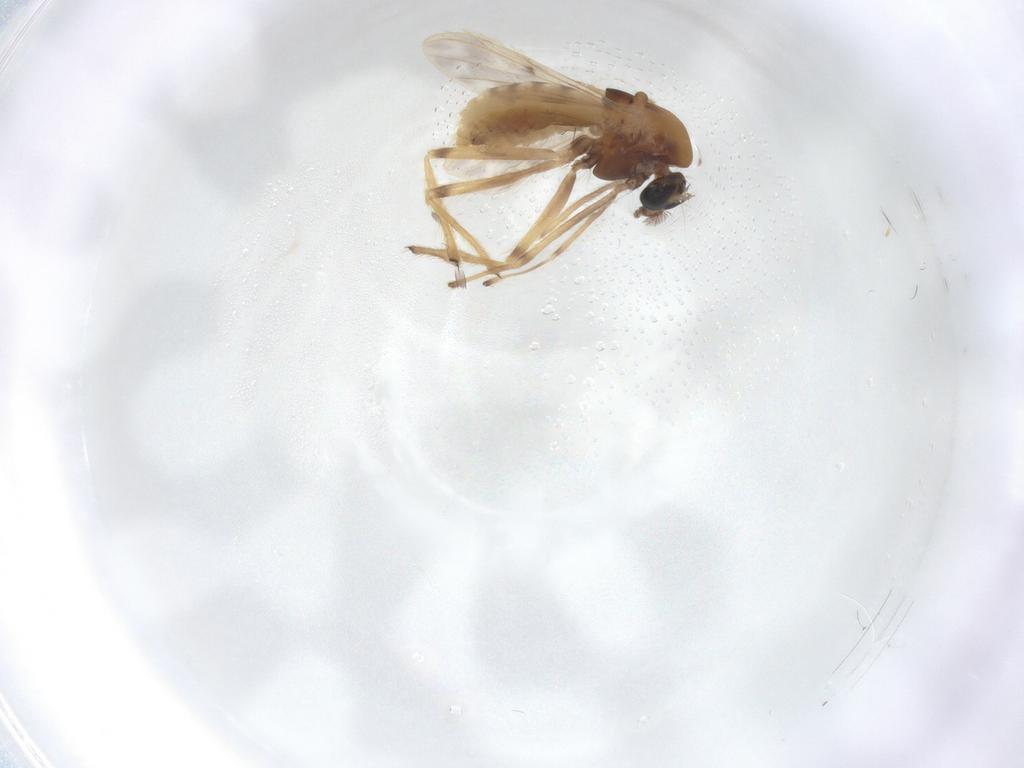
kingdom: Animalia
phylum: Arthropoda
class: Insecta
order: Diptera
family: Chironomidae
